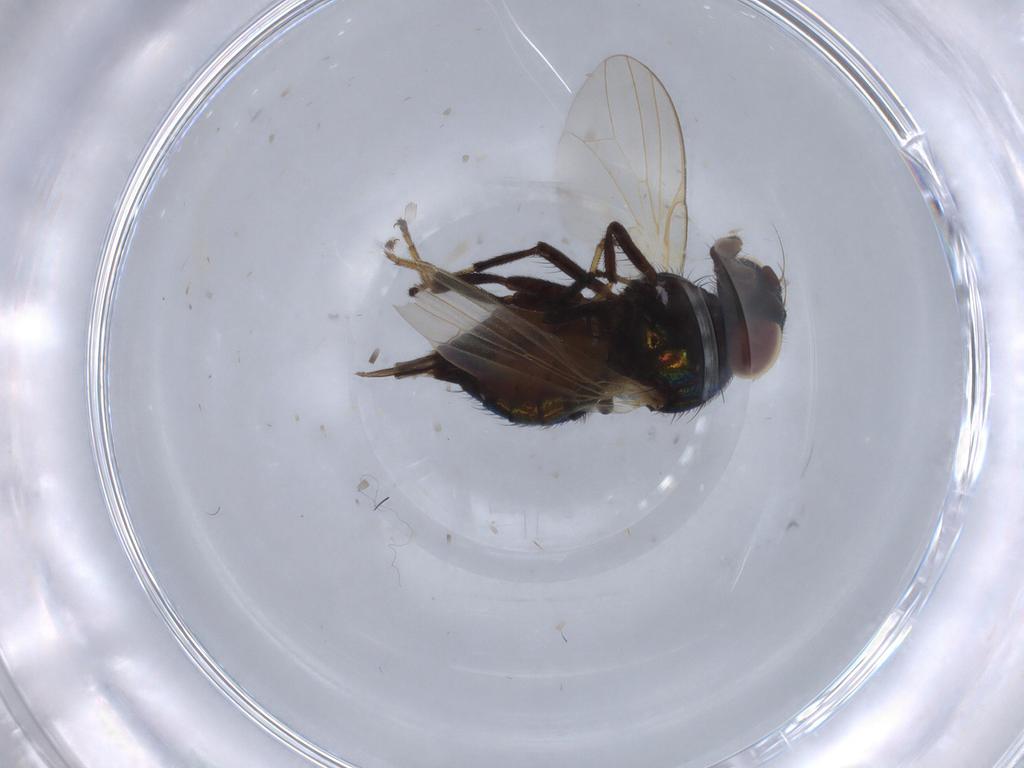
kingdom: Animalia
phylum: Arthropoda
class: Insecta
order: Diptera
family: Lonchaeidae
